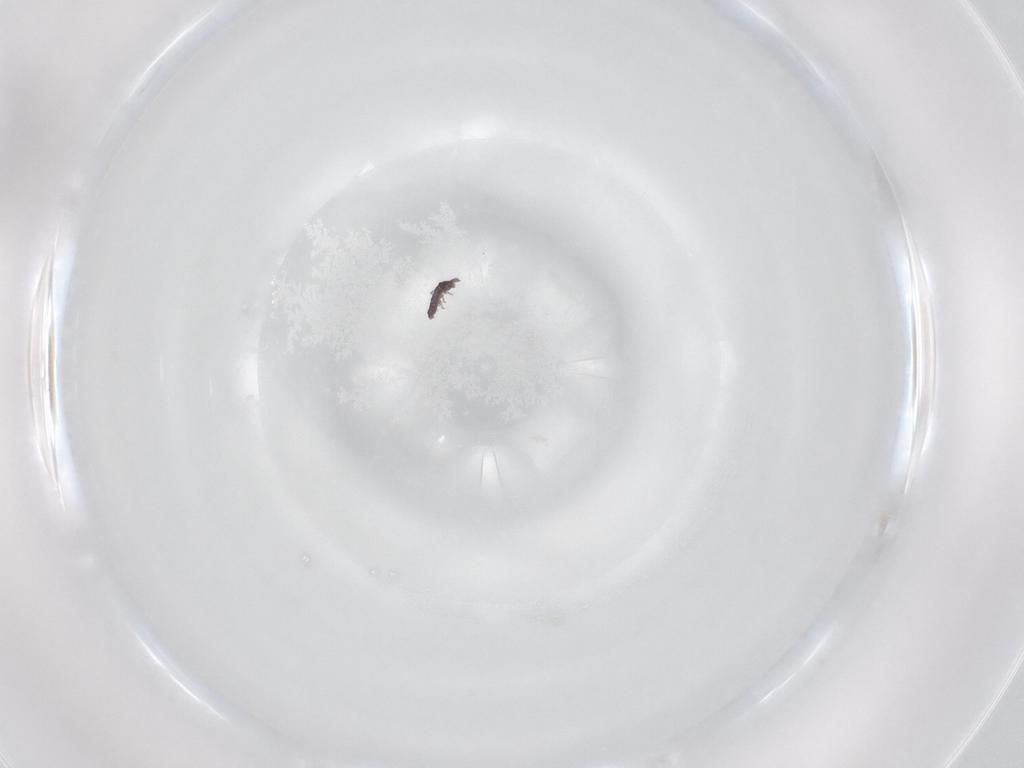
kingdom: Animalia
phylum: Arthropoda
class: Collembola
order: Poduromorpha
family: Hypogastruridae
